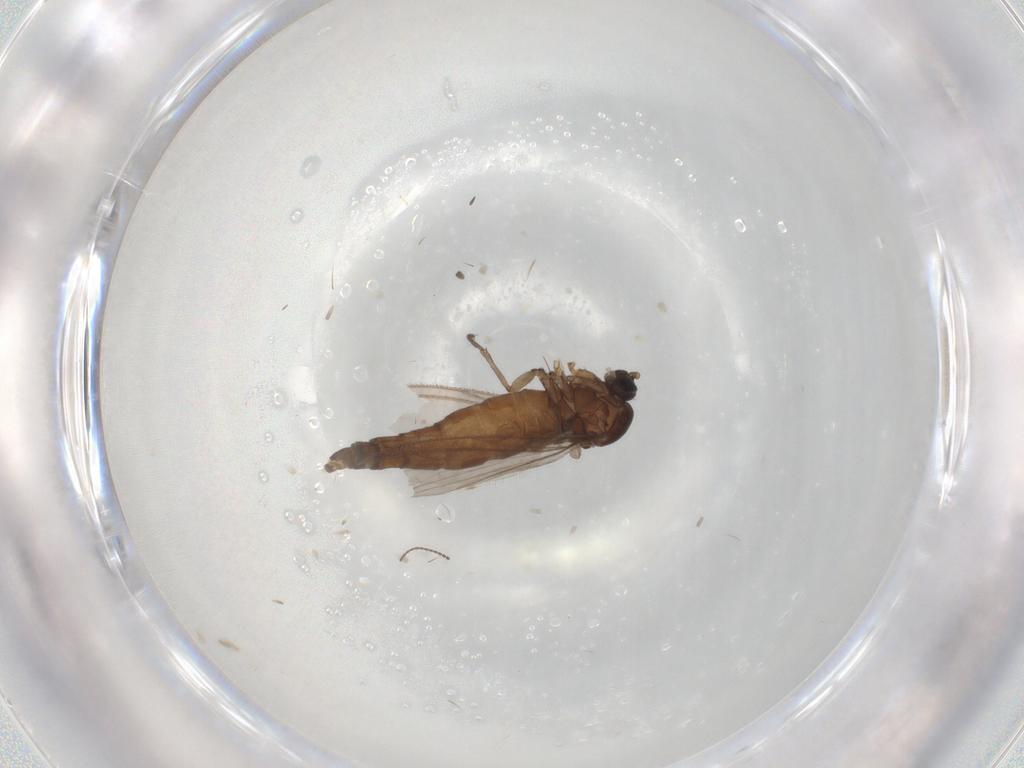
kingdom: Animalia
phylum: Arthropoda
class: Insecta
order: Diptera
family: Sciaridae
